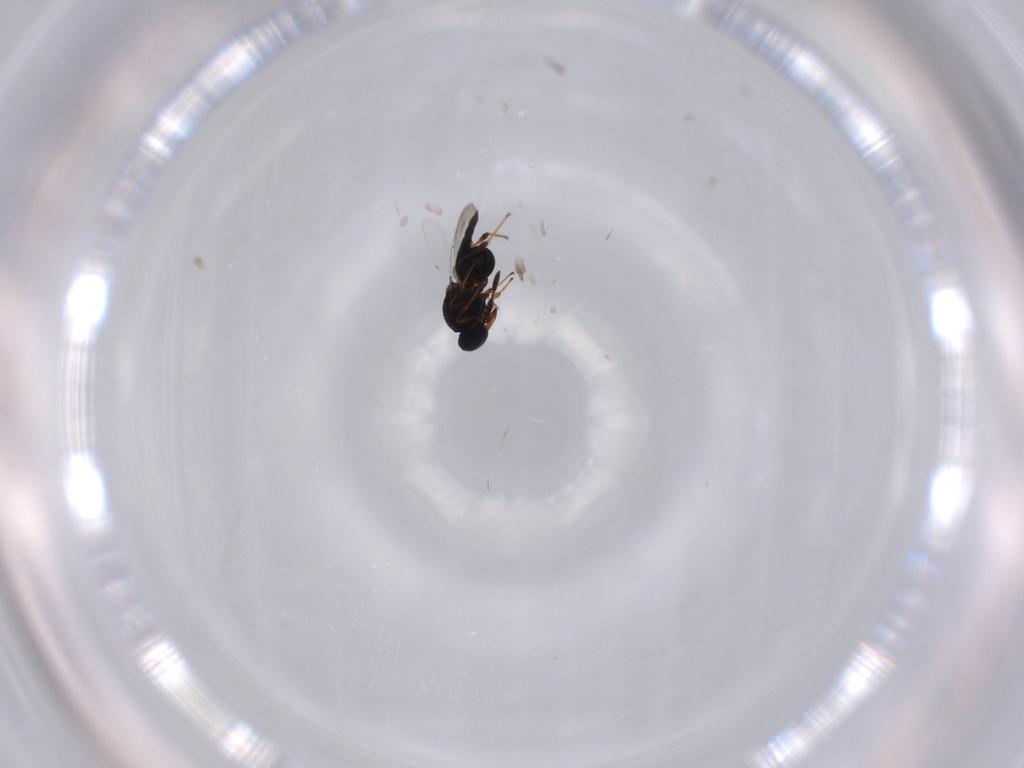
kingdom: Animalia
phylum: Arthropoda
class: Insecta
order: Hymenoptera
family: Platygastridae
